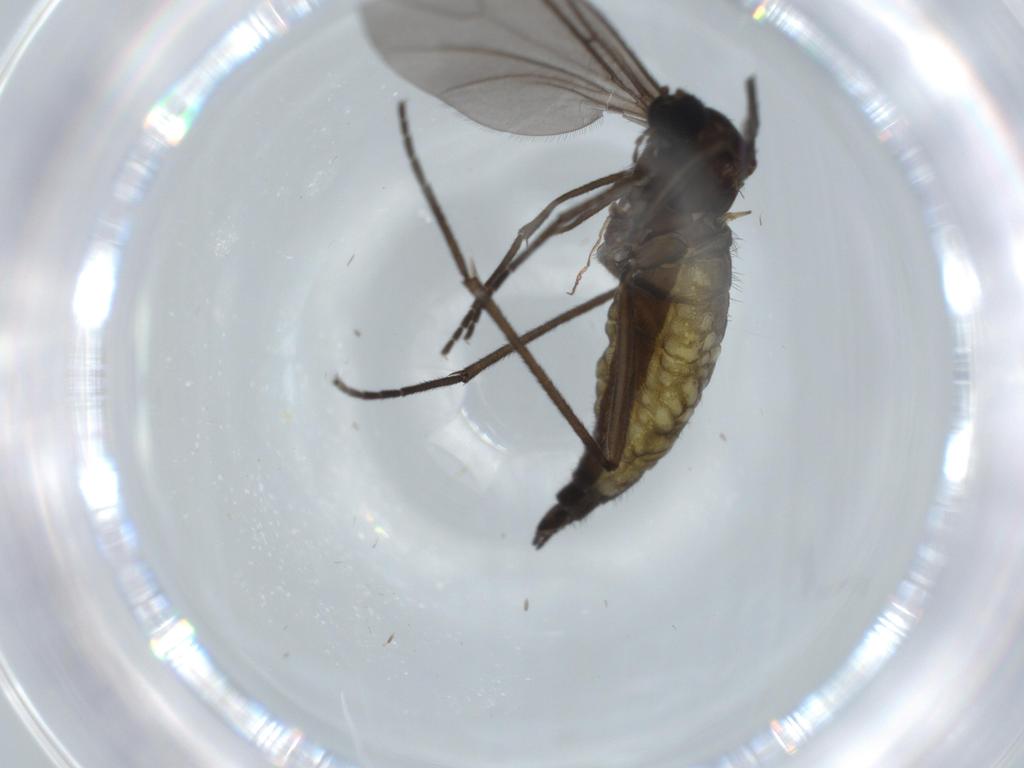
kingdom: Animalia
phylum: Arthropoda
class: Insecta
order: Diptera
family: Sciaridae
